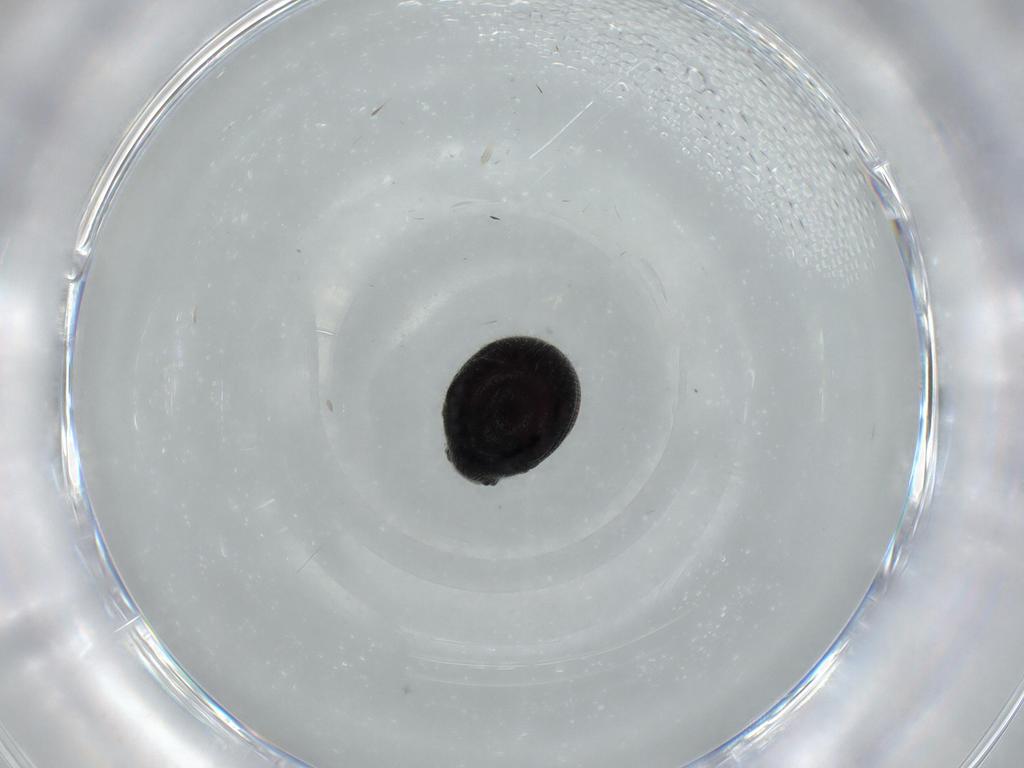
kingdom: Animalia
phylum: Arthropoda
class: Insecta
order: Coleoptera
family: Ptinidae
